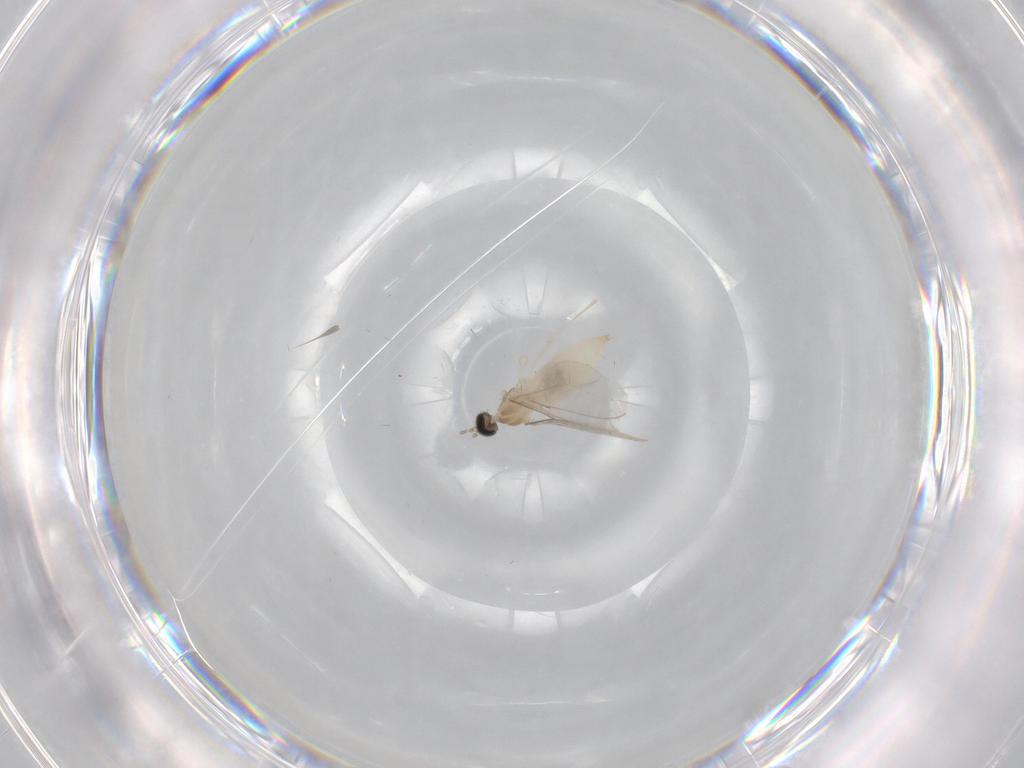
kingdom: Animalia
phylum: Arthropoda
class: Insecta
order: Diptera
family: Cecidomyiidae
